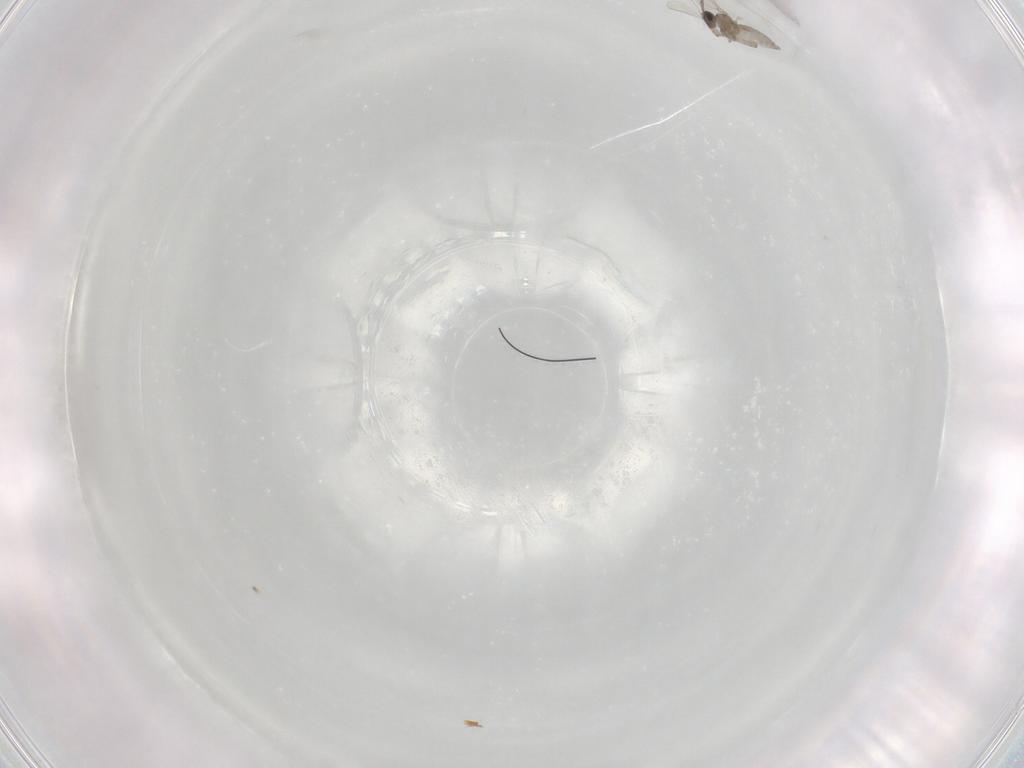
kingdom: Animalia
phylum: Arthropoda
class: Insecta
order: Diptera
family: Cecidomyiidae
